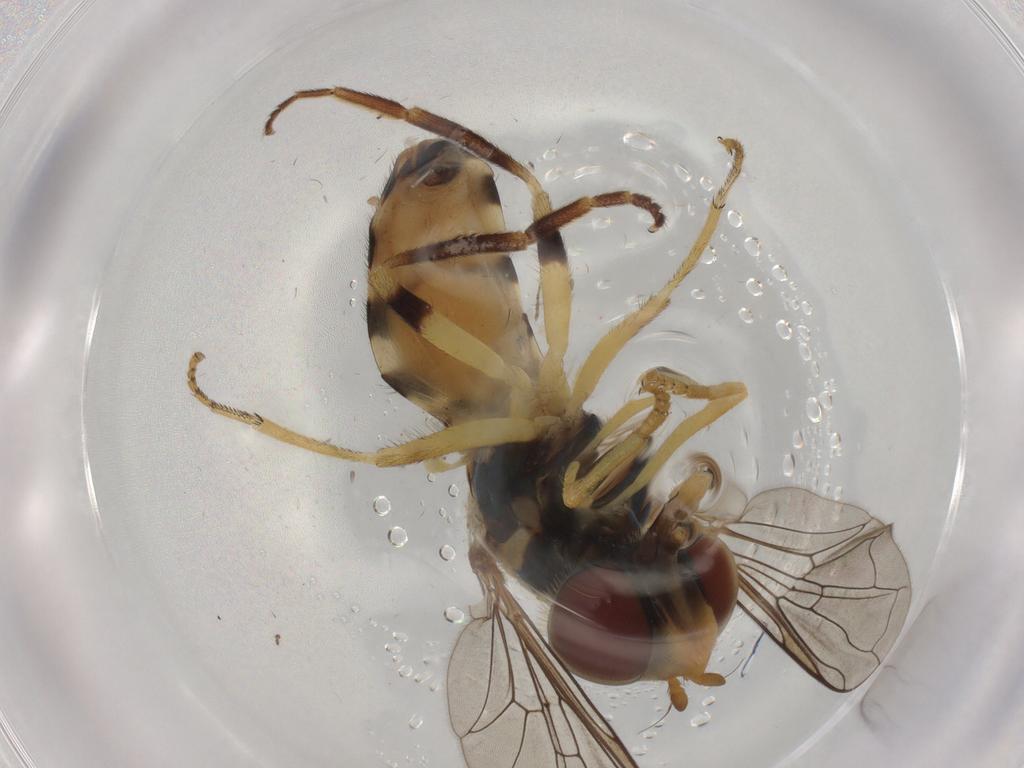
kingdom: Animalia
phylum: Arthropoda
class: Insecta
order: Diptera
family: Syrphidae
